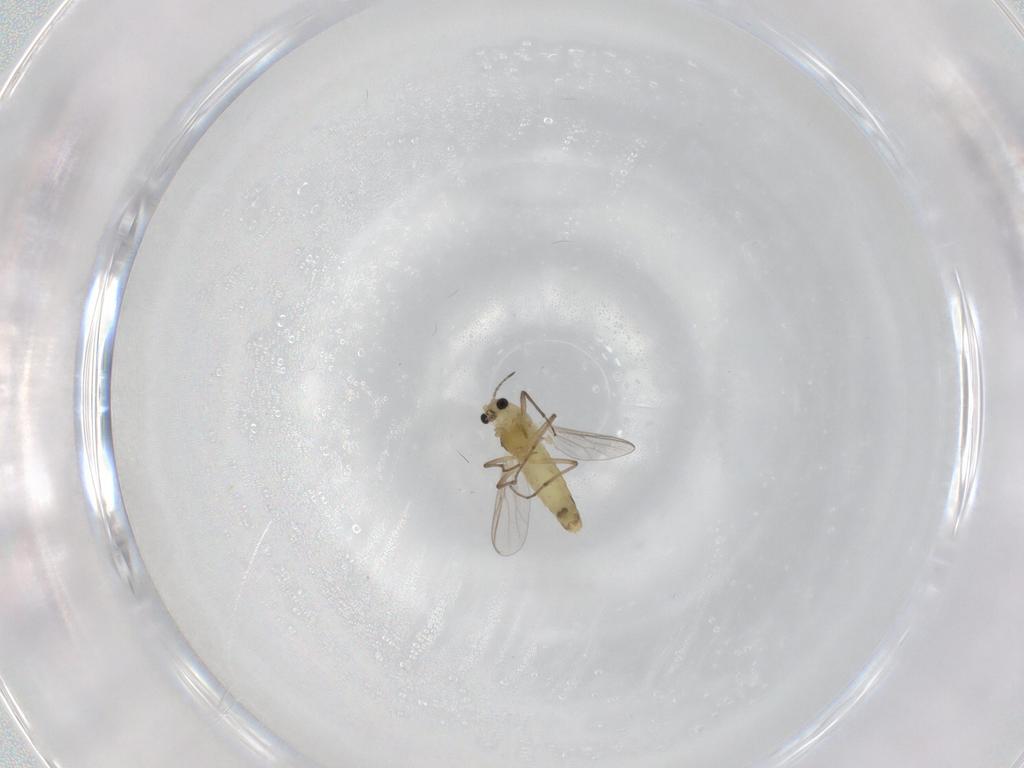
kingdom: Animalia
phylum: Arthropoda
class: Insecta
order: Diptera
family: Chironomidae
